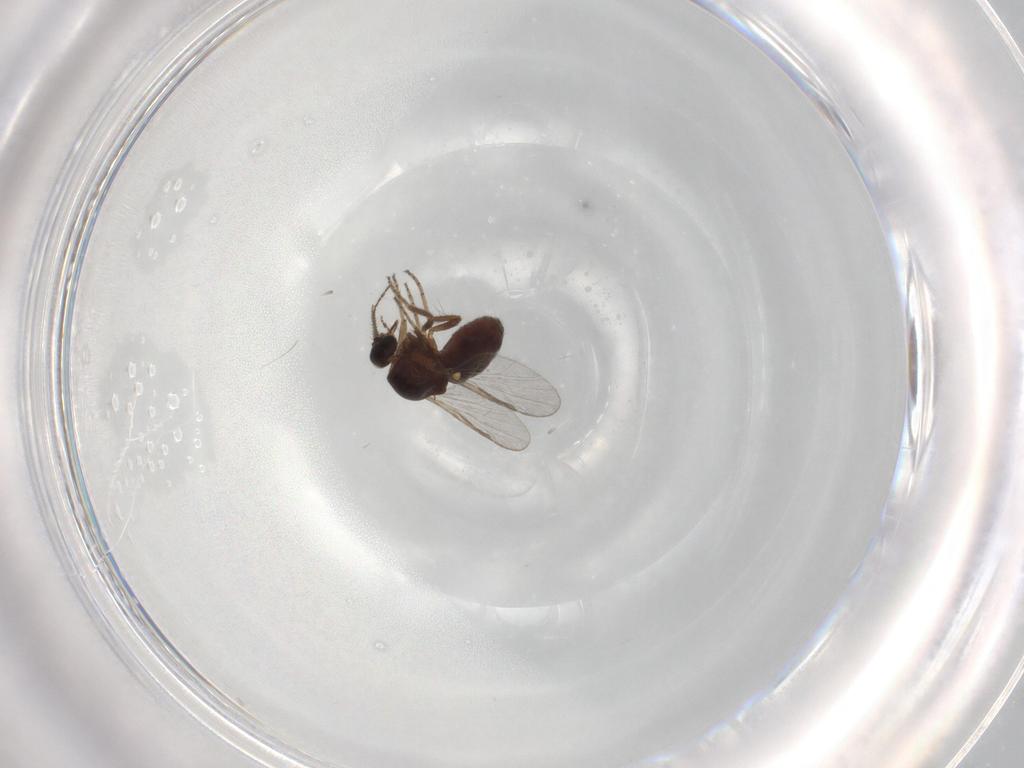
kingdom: Animalia
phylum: Arthropoda
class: Insecta
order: Diptera
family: Ceratopogonidae
